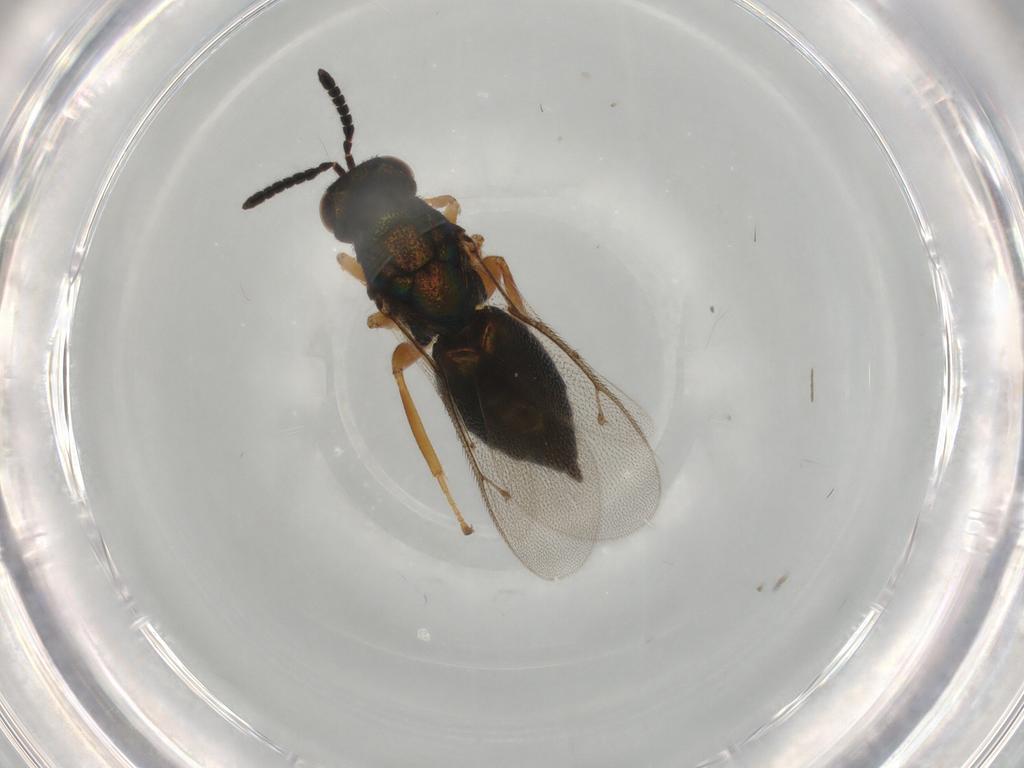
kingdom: Animalia
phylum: Arthropoda
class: Insecta
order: Hymenoptera
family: Pteromalidae
